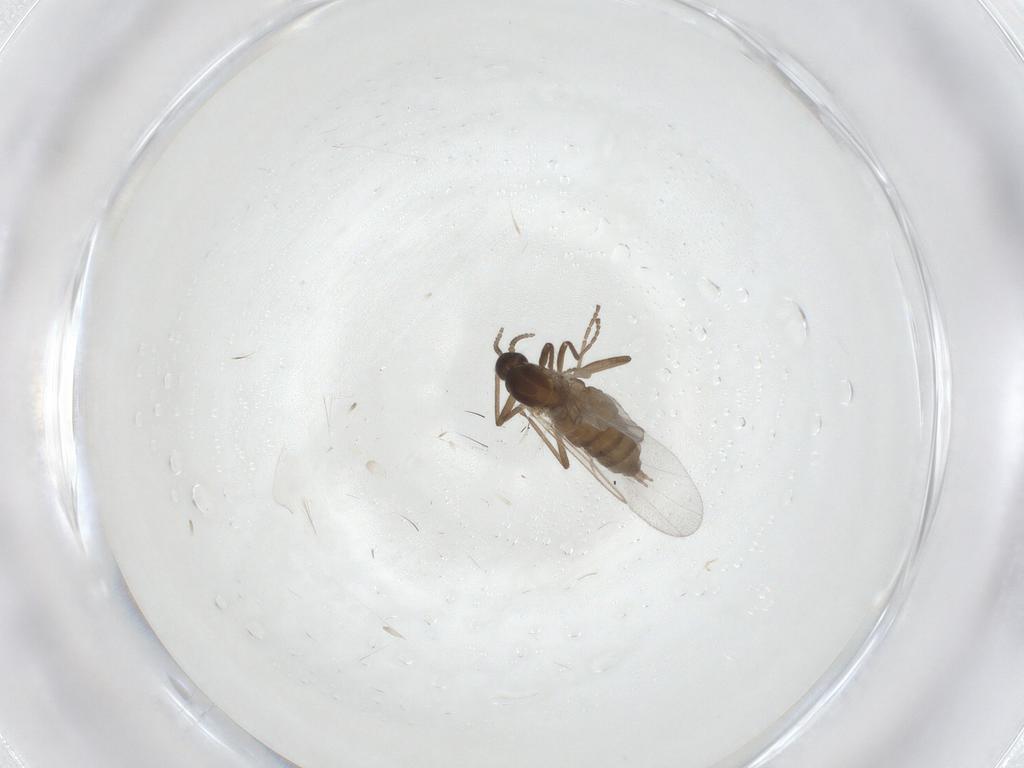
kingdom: Animalia
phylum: Arthropoda
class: Insecta
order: Diptera
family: Cecidomyiidae
